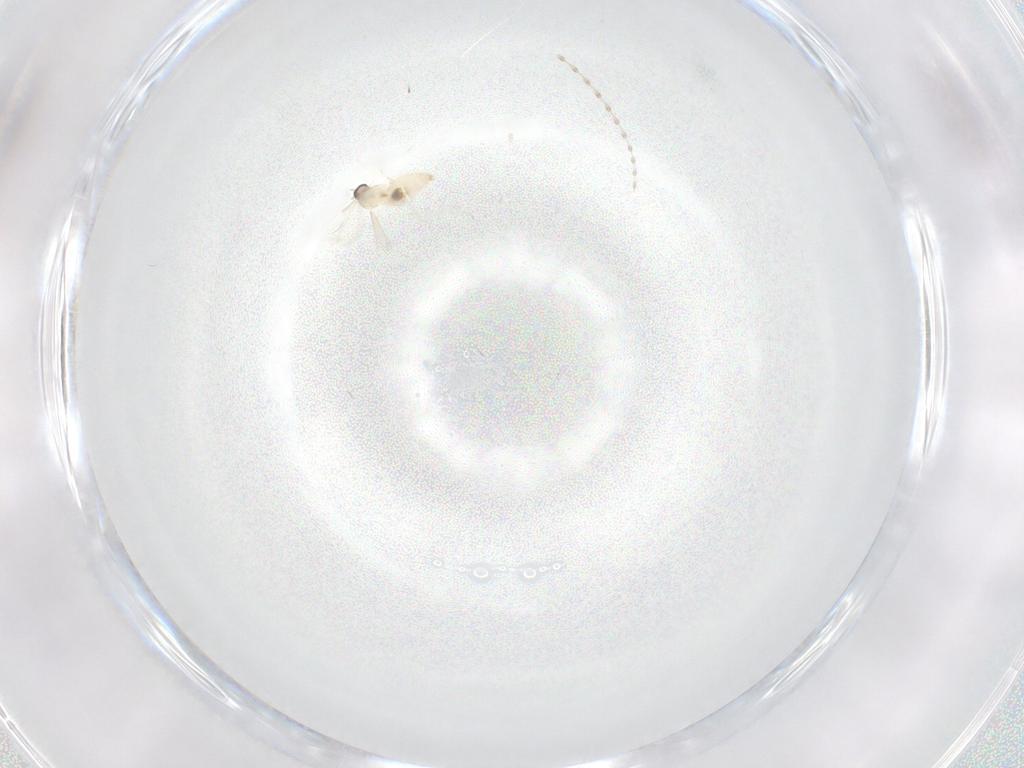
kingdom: Animalia
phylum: Arthropoda
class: Insecta
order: Diptera
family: Cecidomyiidae
